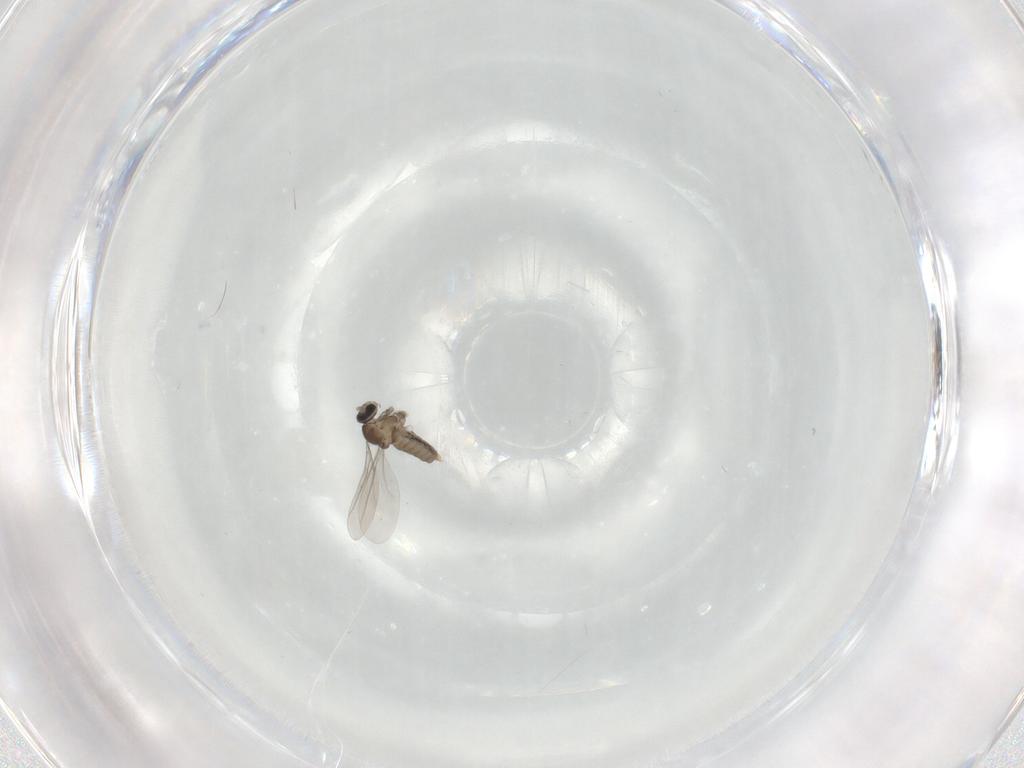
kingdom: Animalia
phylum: Arthropoda
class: Insecta
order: Diptera
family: Cecidomyiidae
